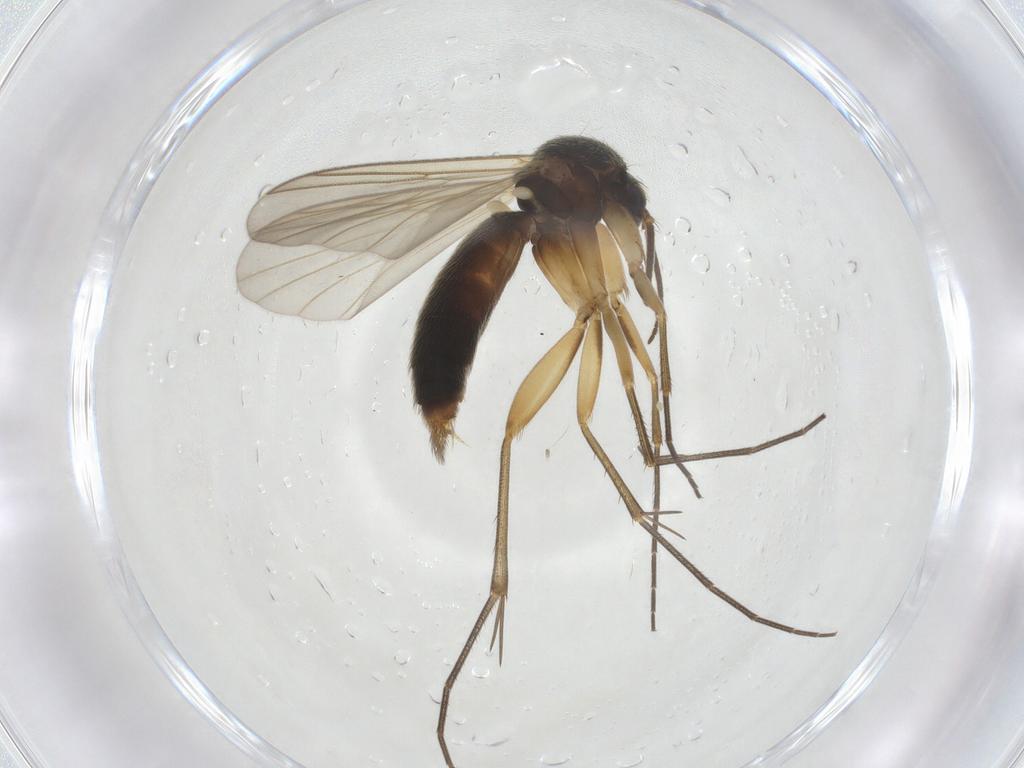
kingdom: Animalia
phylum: Arthropoda
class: Insecta
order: Diptera
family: Mycetophilidae
